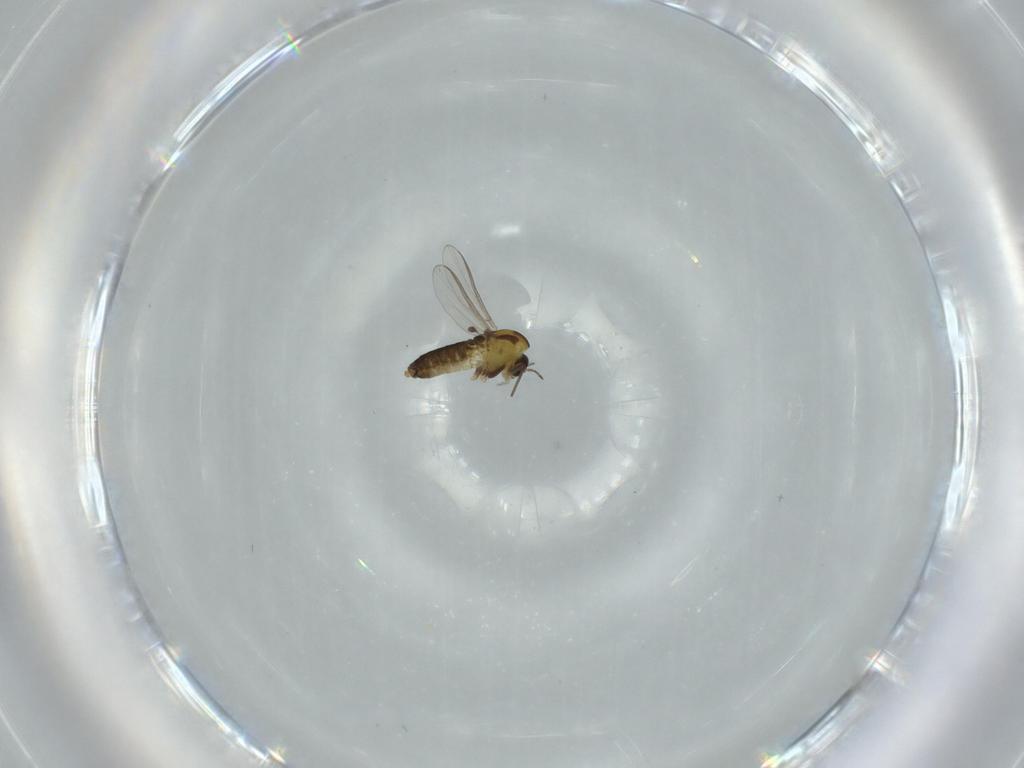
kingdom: Animalia
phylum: Arthropoda
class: Insecta
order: Diptera
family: Chironomidae
